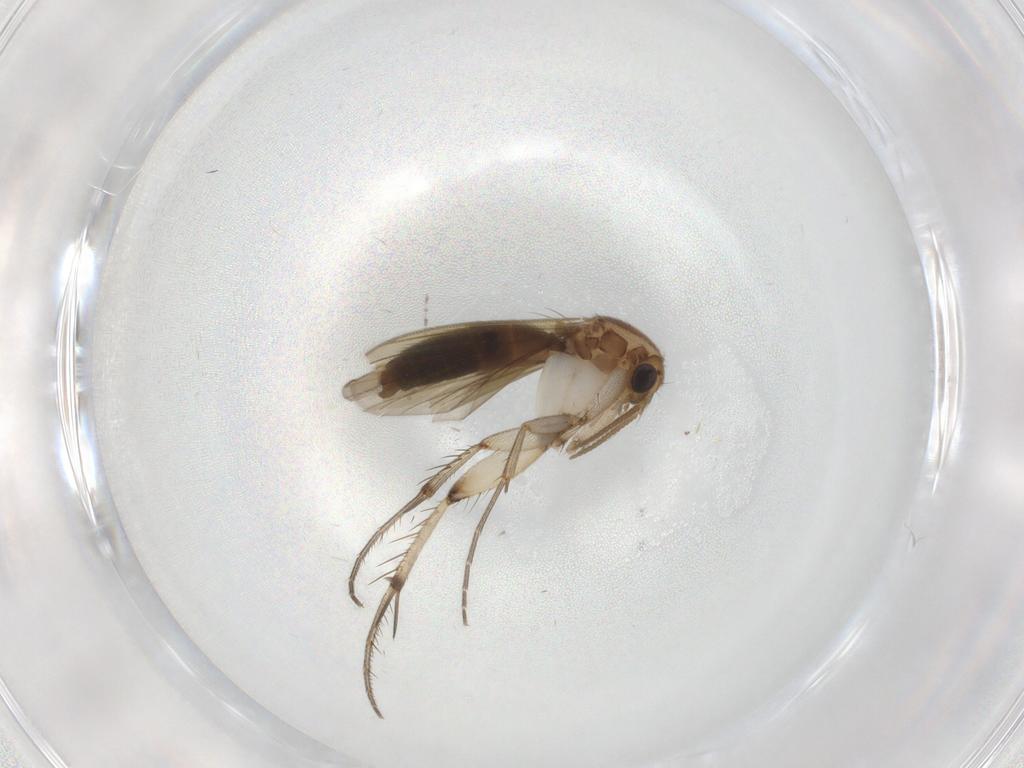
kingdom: Animalia
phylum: Arthropoda
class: Insecta
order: Diptera
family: Mycetophilidae
